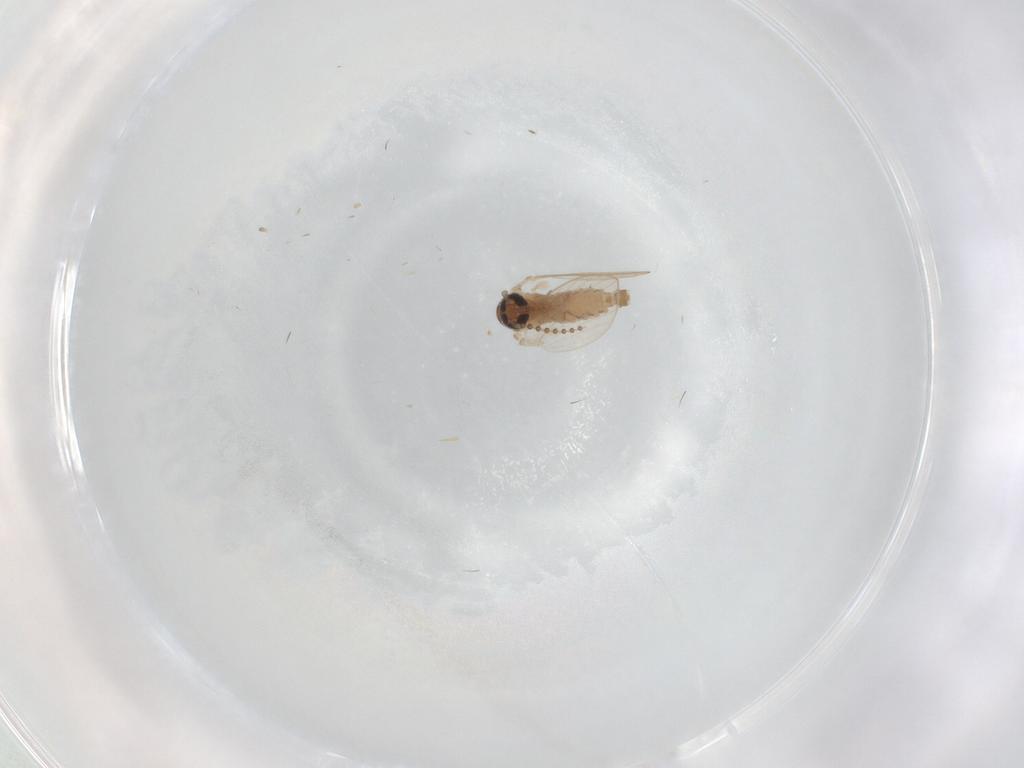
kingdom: Animalia
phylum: Arthropoda
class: Insecta
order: Diptera
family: Psychodidae
